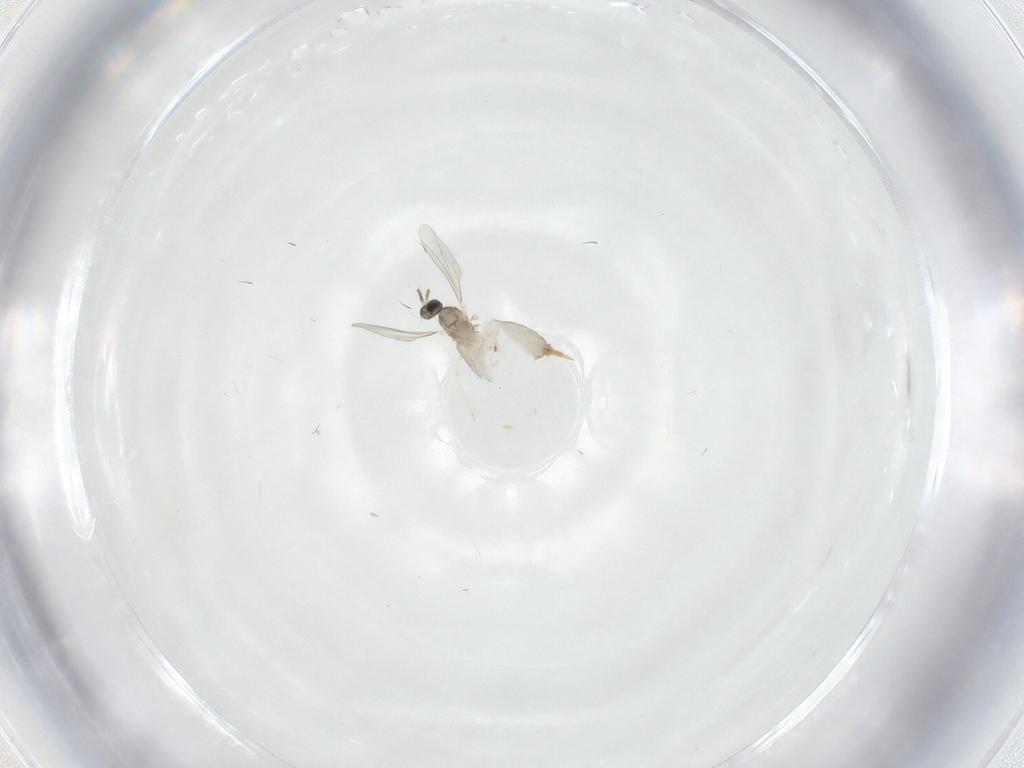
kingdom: Animalia
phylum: Arthropoda
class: Insecta
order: Diptera
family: Cecidomyiidae
